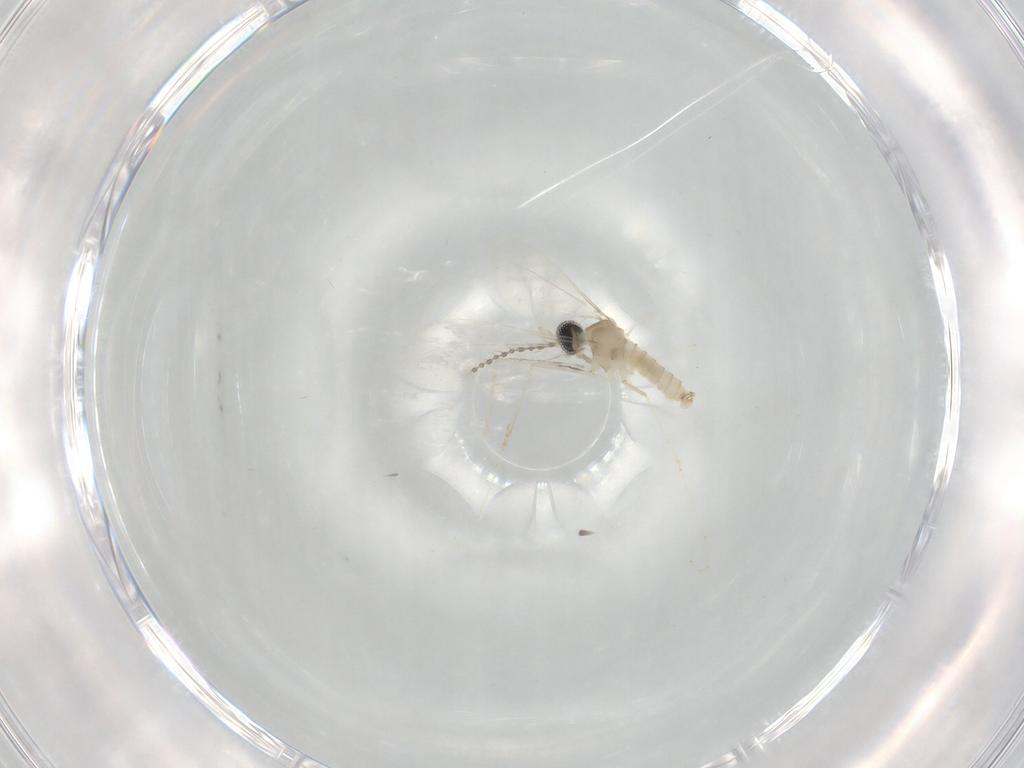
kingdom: Animalia
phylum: Arthropoda
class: Insecta
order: Diptera
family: Cecidomyiidae
